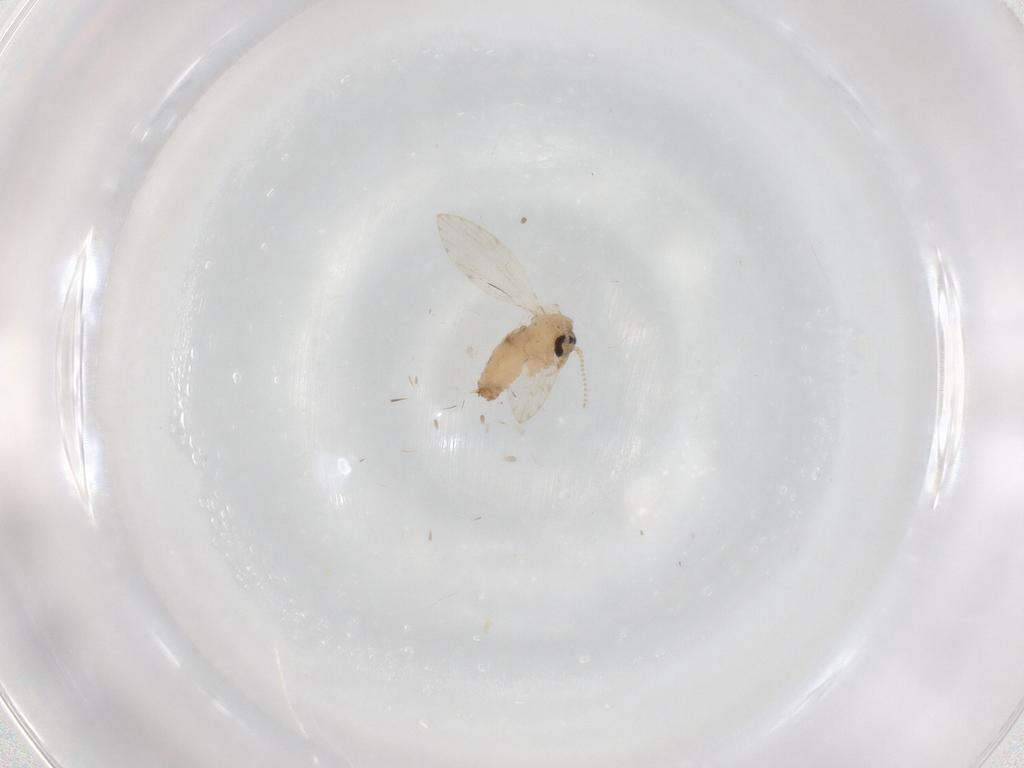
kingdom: Animalia
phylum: Arthropoda
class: Insecta
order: Diptera
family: Psychodidae
